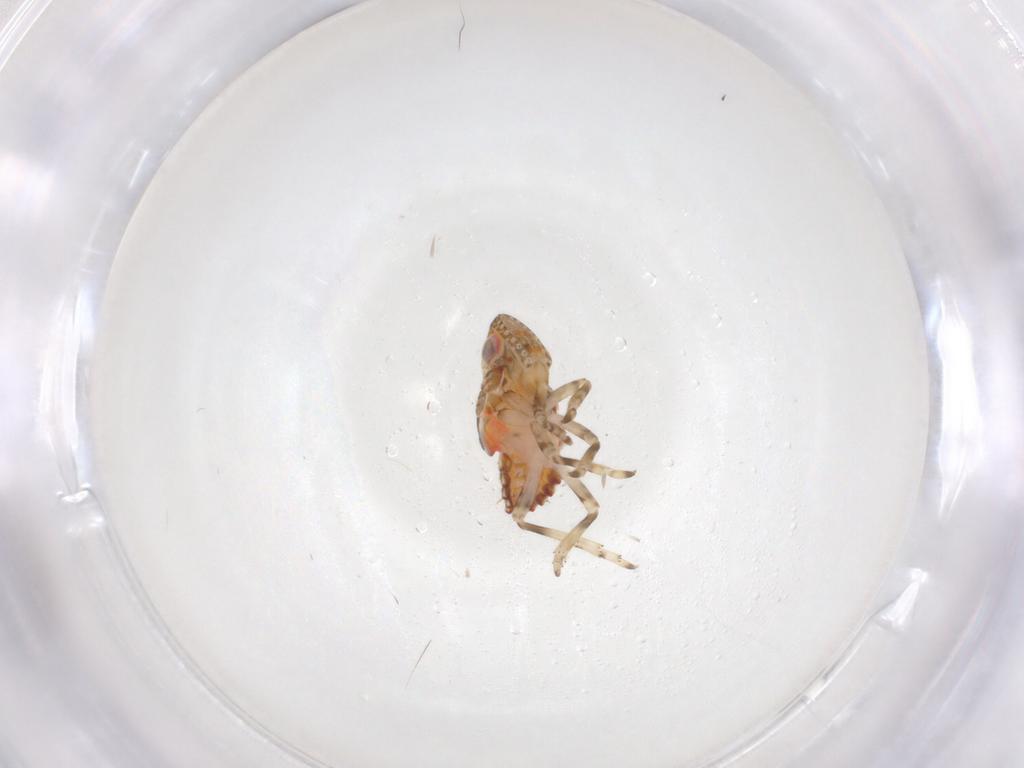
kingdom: Animalia
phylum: Arthropoda
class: Insecta
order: Hemiptera
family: Tropiduchidae
